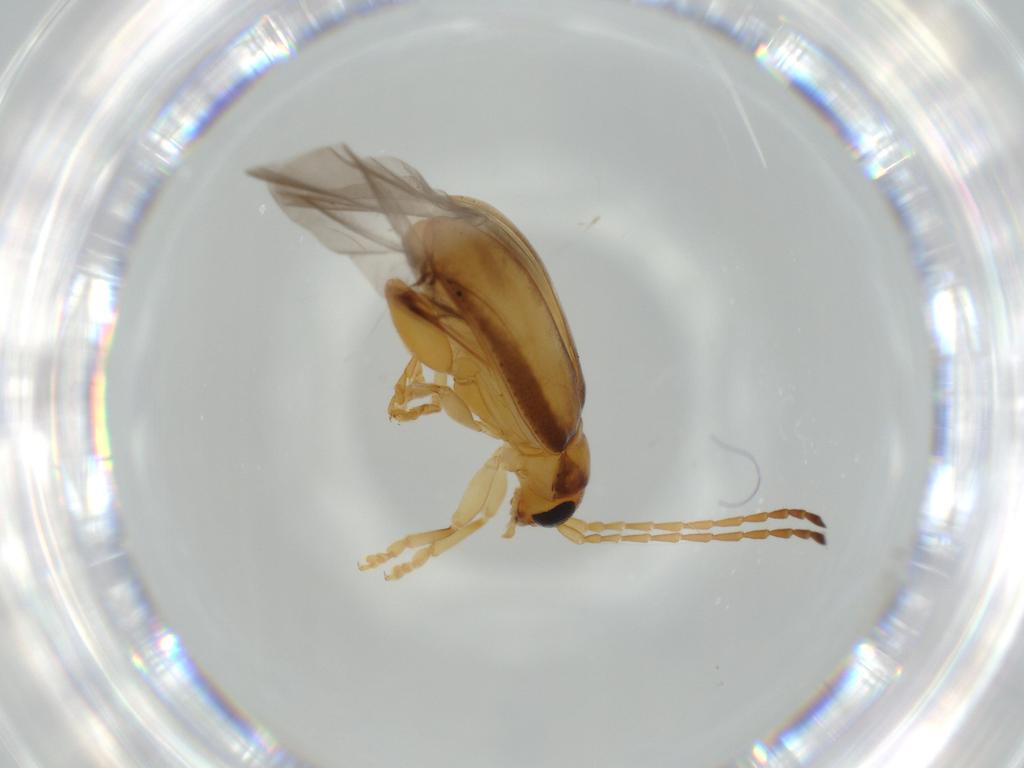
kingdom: Animalia
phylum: Arthropoda
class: Insecta
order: Coleoptera
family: Chrysomelidae
